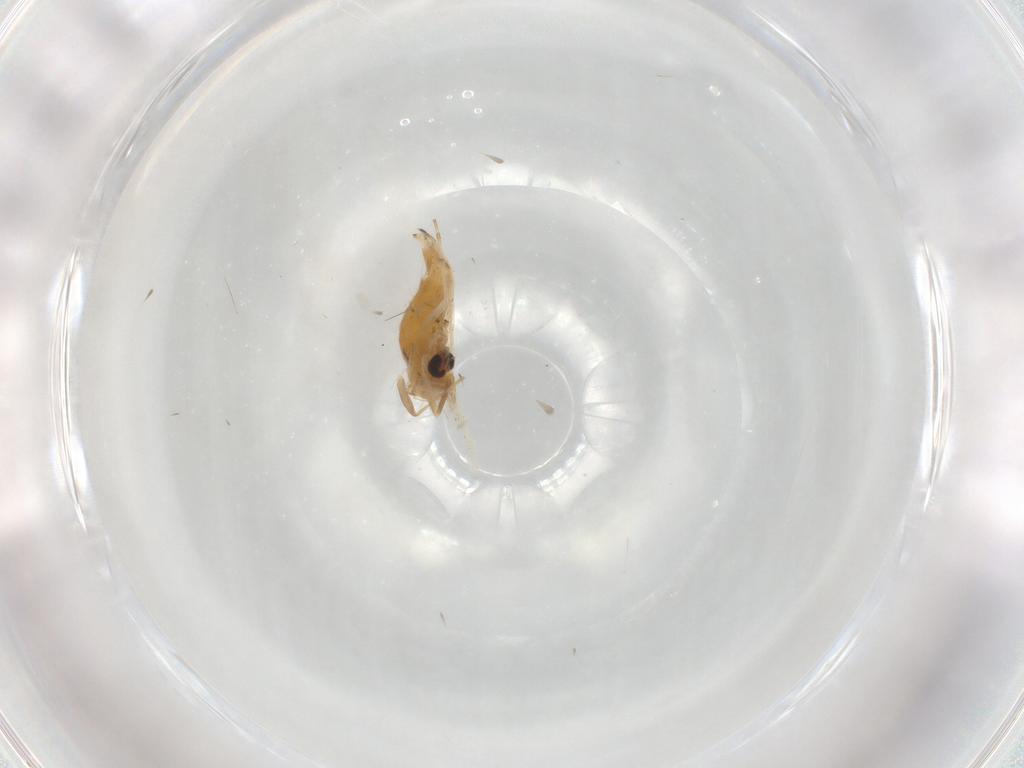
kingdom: Animalia
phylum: Arthropoda
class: Insecta
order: Diptera
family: Chironomidae
